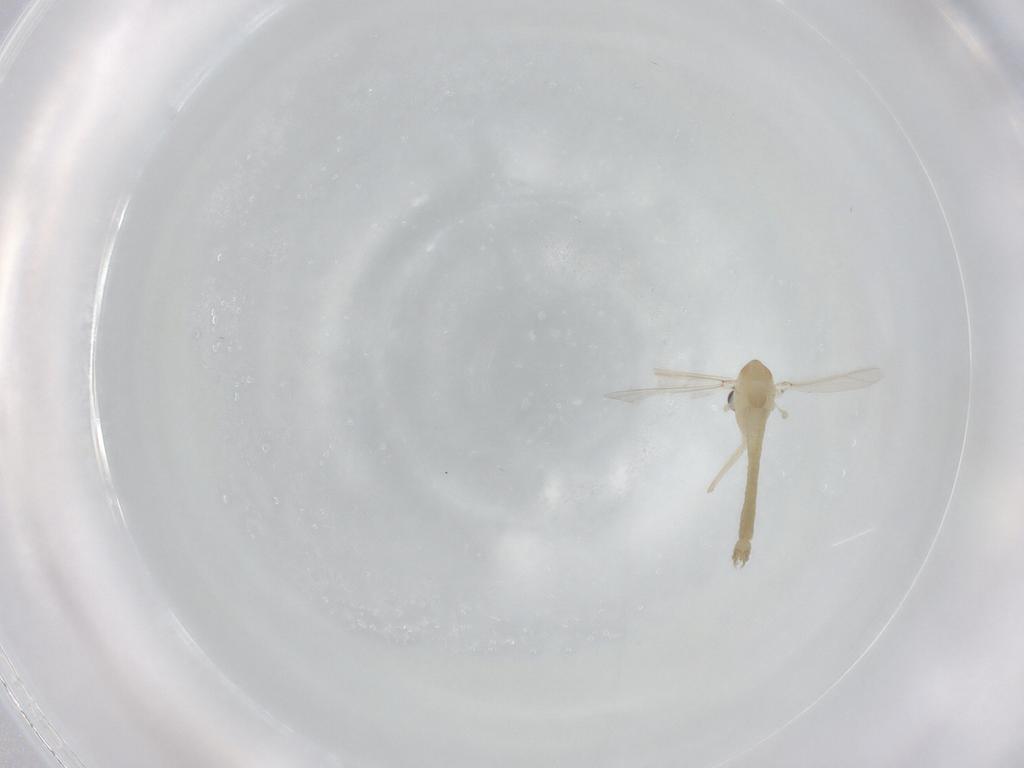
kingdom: Animalia
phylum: Arthropoda
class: Insecta
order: Diptera
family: Chironomidae
